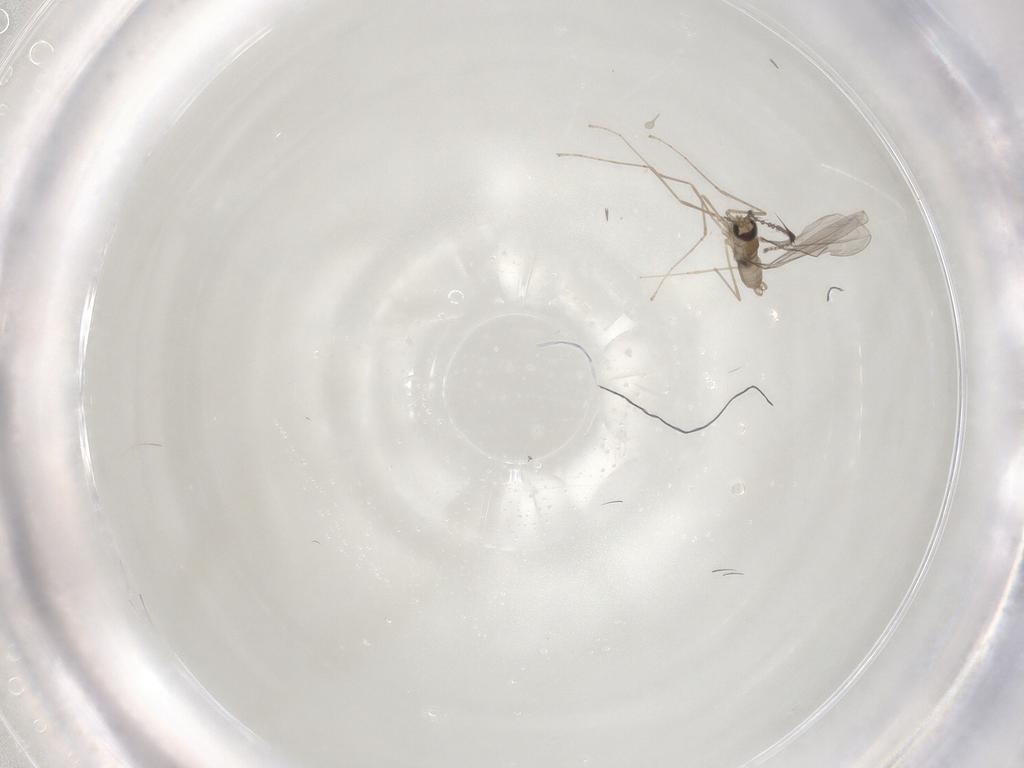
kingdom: Animalia
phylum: Arthropoda
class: Insecta
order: Diptera
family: Cecidomyiidae
